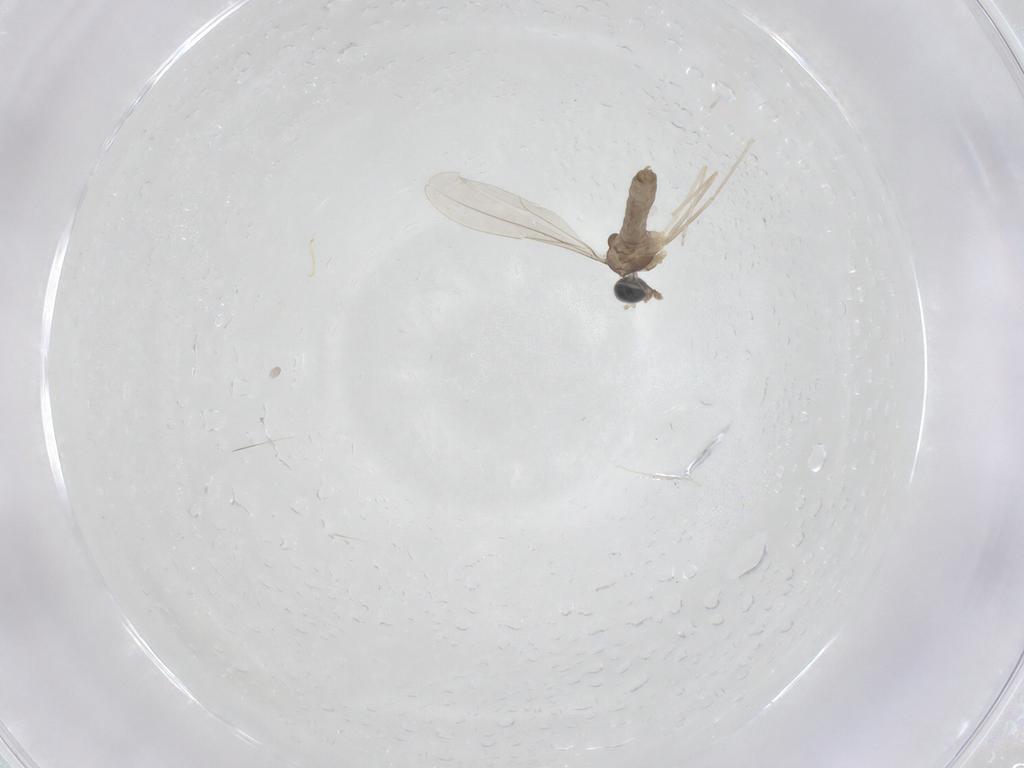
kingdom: Animalia
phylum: Arthropoda
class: Insecta
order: Diptera
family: Cecidomyiidae
